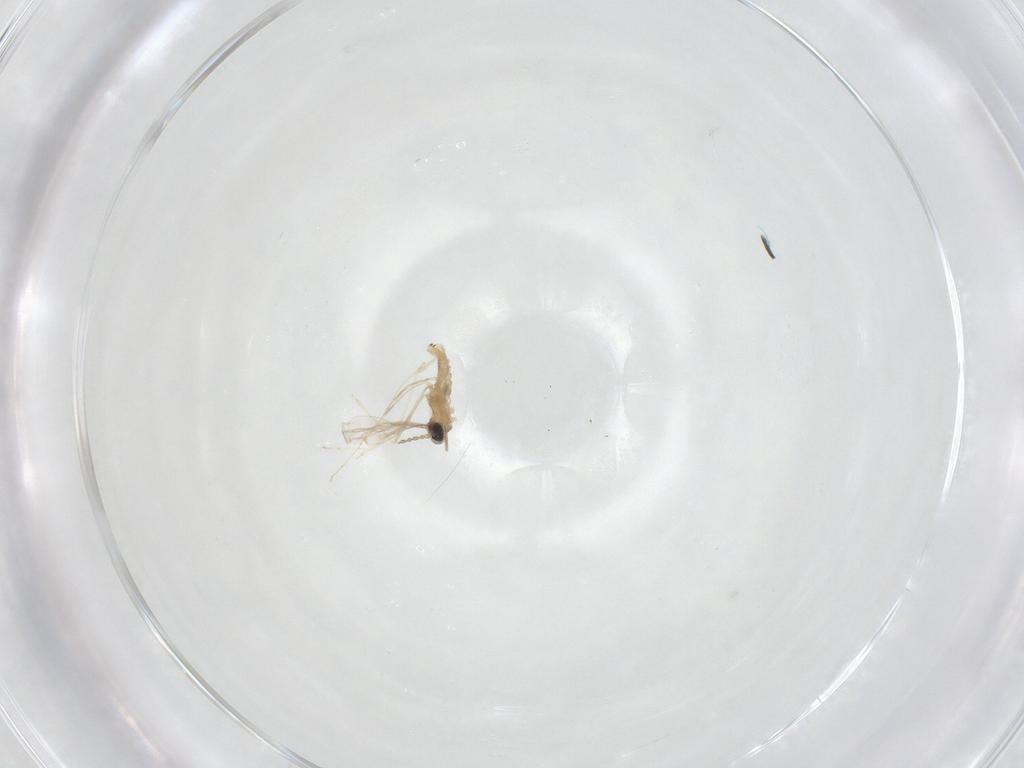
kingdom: Animalia
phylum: Arthropoda
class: Insecta
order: Diptera
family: Cecidomyiidae
